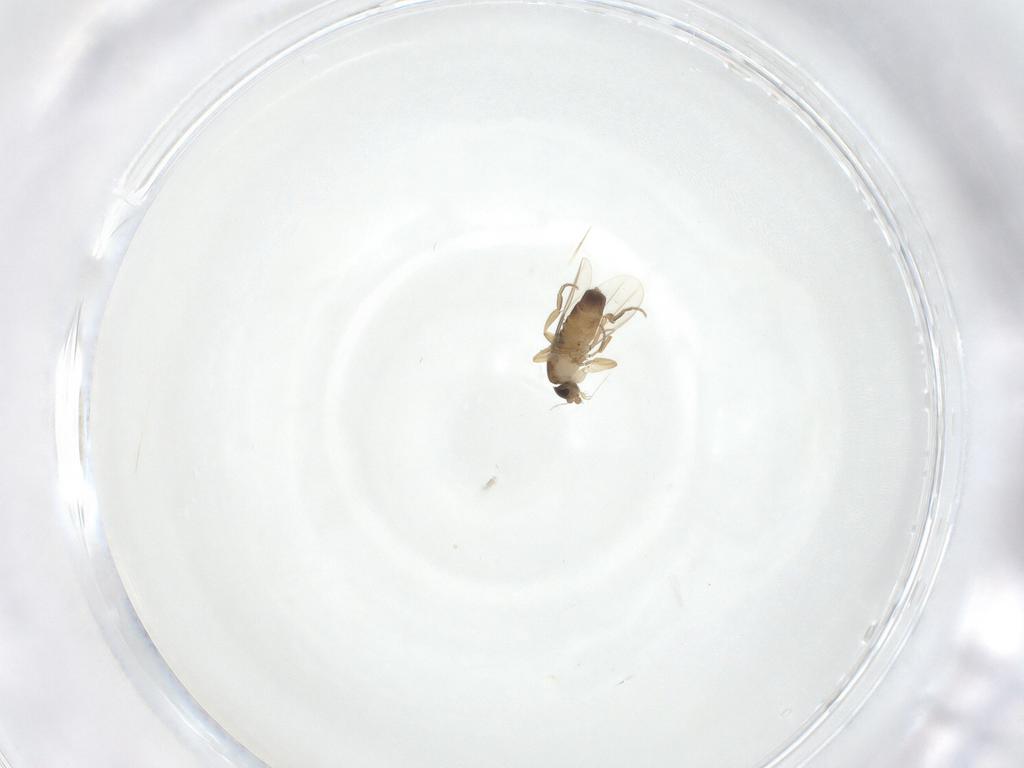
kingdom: Animalia
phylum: Arthropoda
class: Insecta
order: Diptera
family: Phoridae
